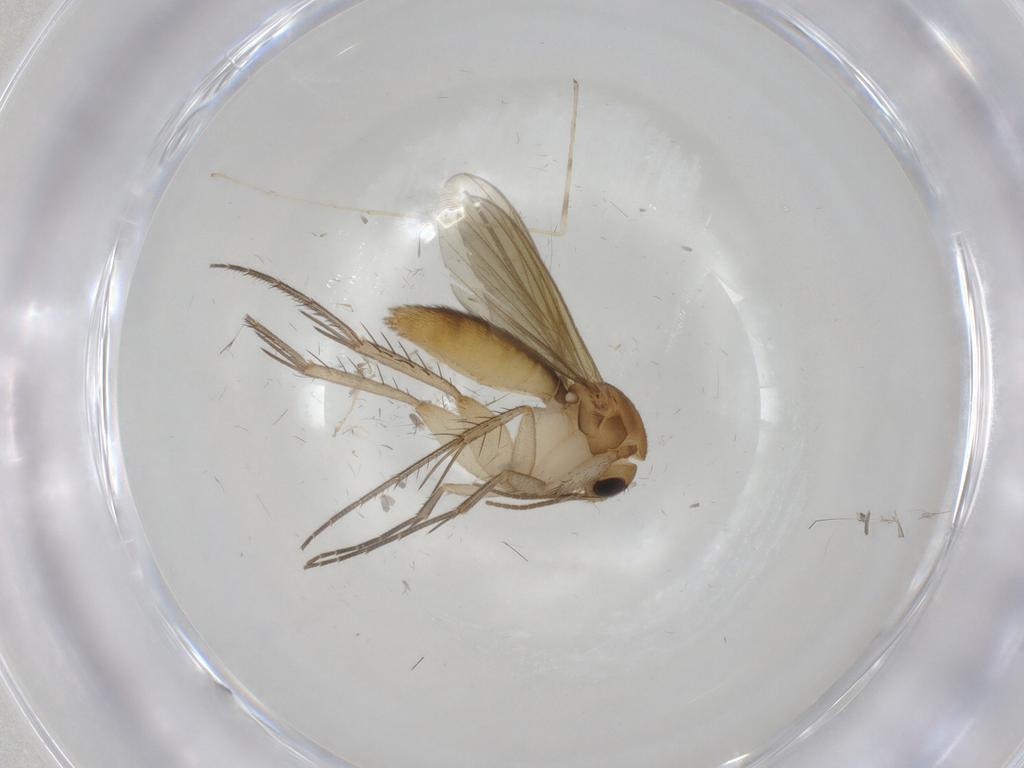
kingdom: Animalia
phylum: Arthropoda
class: Insecta
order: Diptera
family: Mycetophilidae
